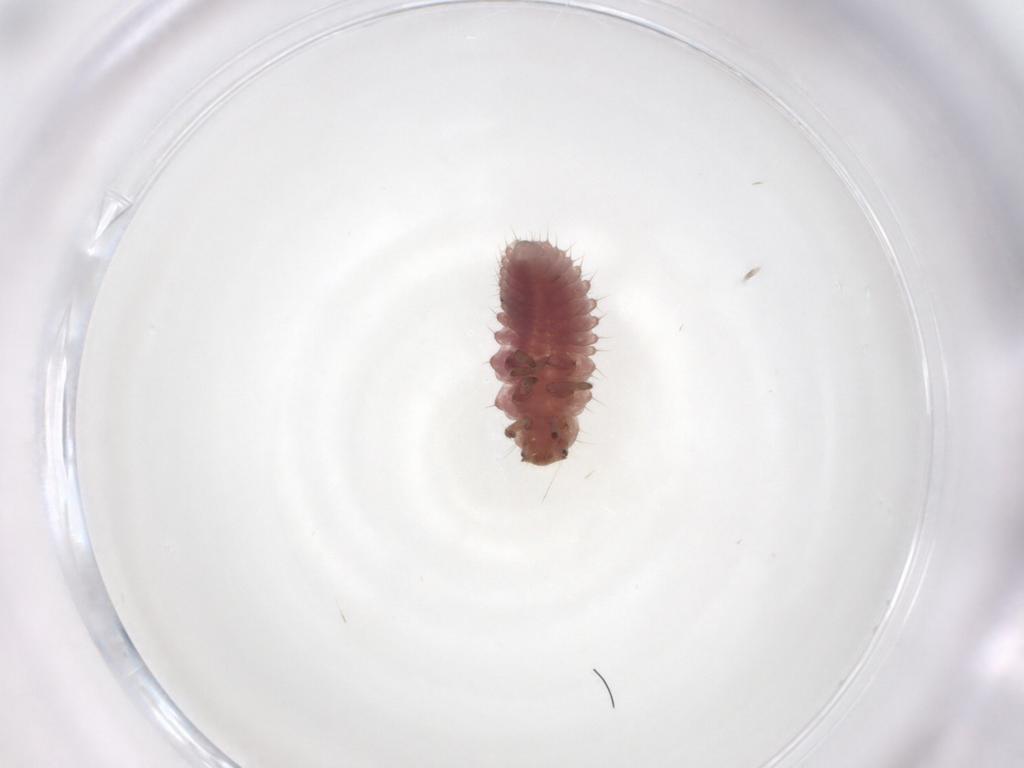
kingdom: Animalia
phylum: Arthropoda
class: Insecta
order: Coleoptera
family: Coccinellidae
